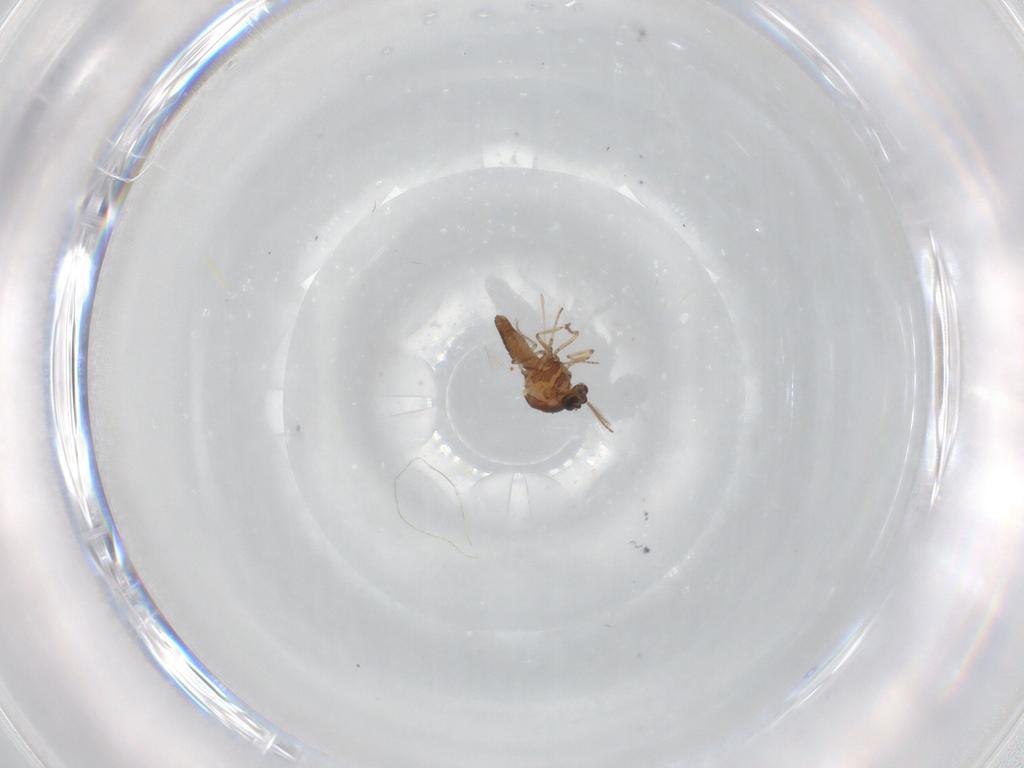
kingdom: Animalia
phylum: Arthropoda
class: Insecta
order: Diptera
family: Ceratopogonidae
